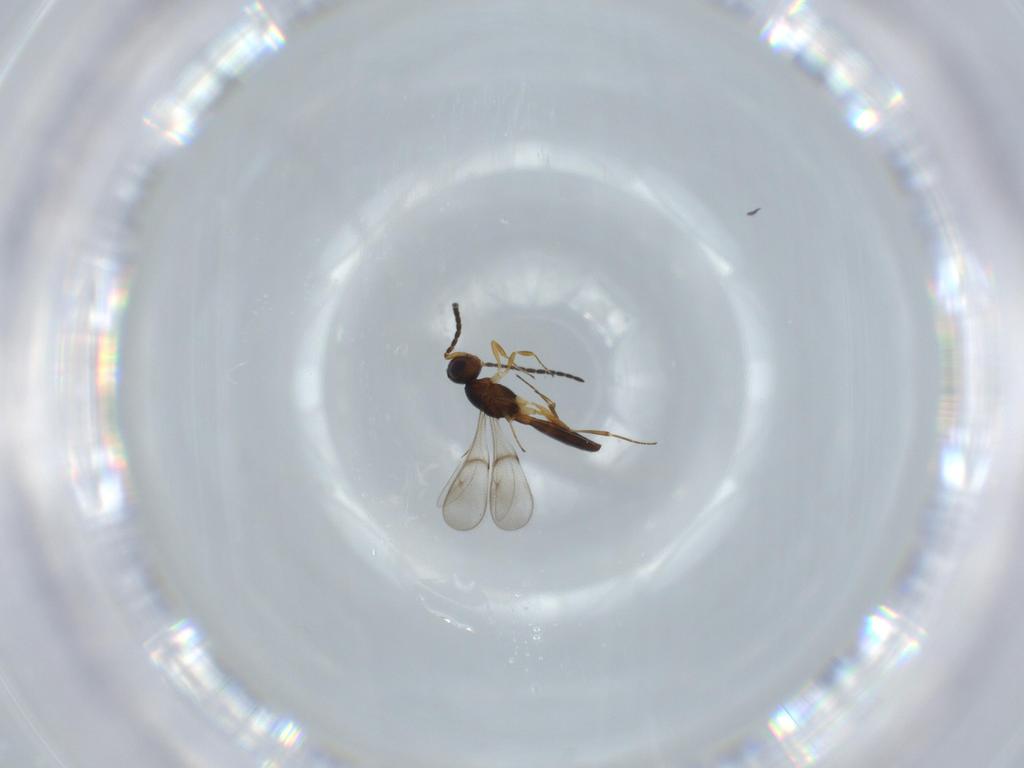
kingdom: Animalia
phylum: Arthropoda
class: Insecta
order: Hymenoptera
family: Scelionidae
